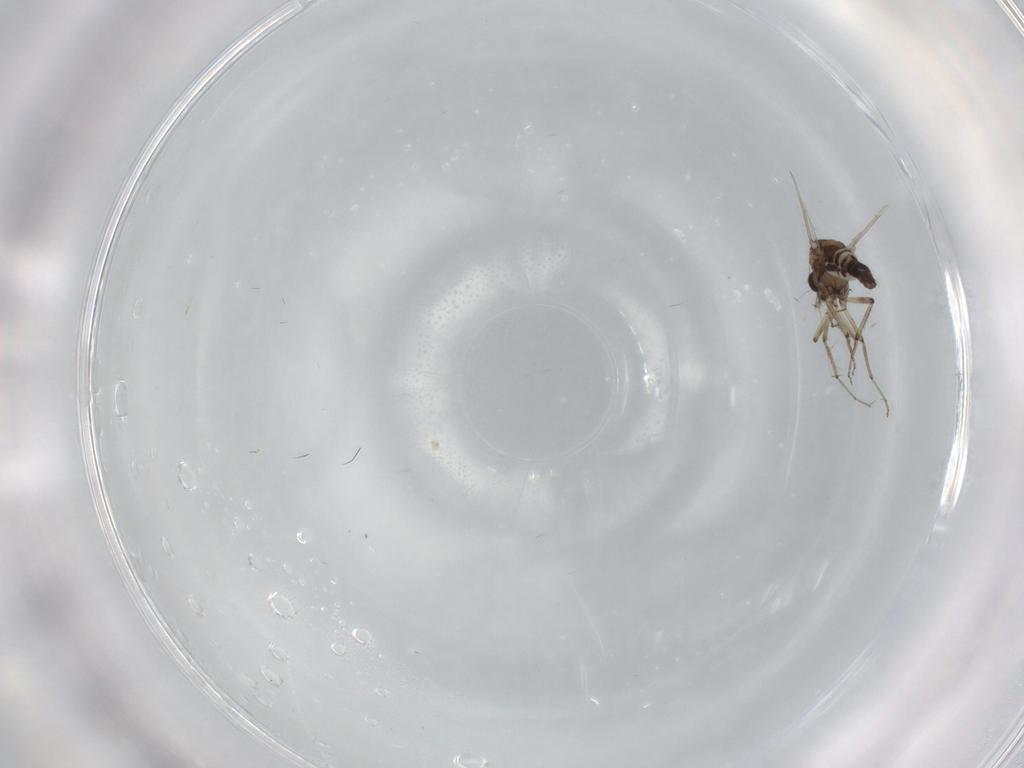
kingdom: Animalia
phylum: Arthropoda
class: Insecta
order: Diptera
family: Ceratopogonidae
